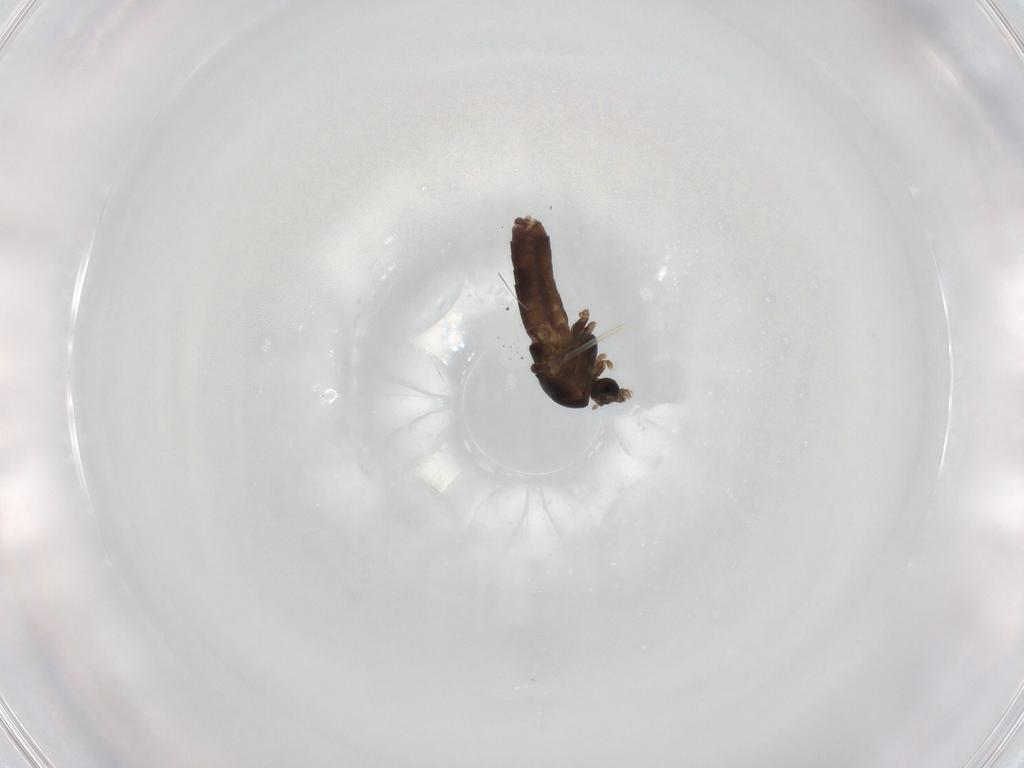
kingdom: Animalia
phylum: Arthropoda
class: Insecta
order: Diptera
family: Chironomidae
